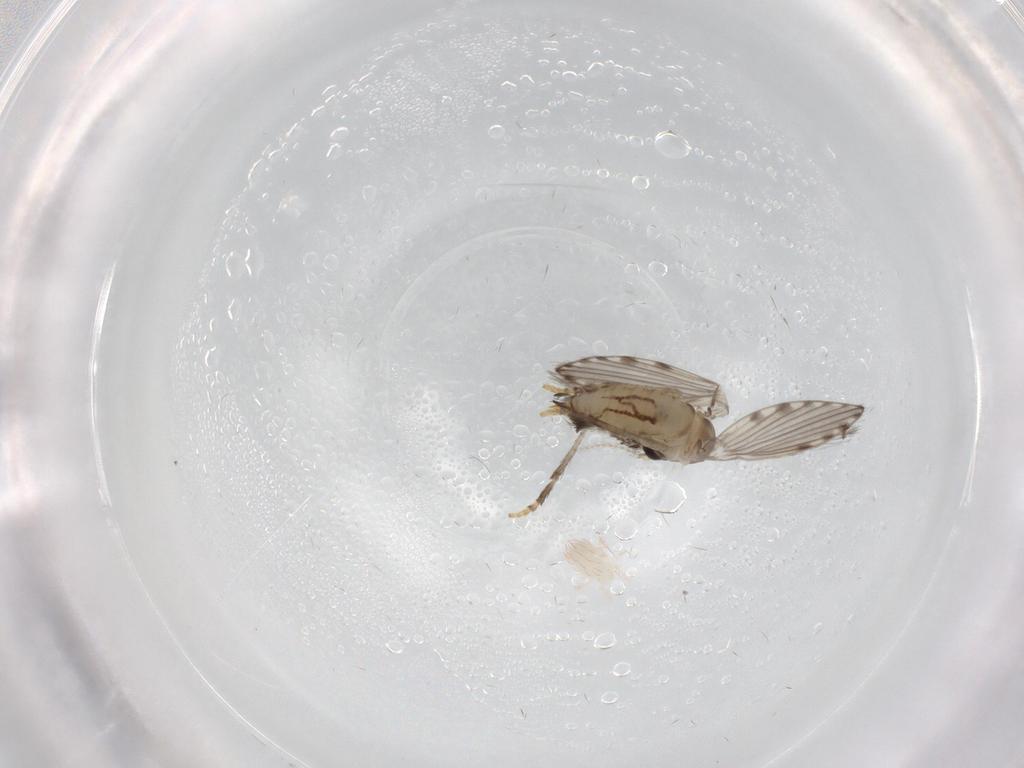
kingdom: Animalia
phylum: Arthropoda
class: Insecta
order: Diptera
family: Psychodidae
